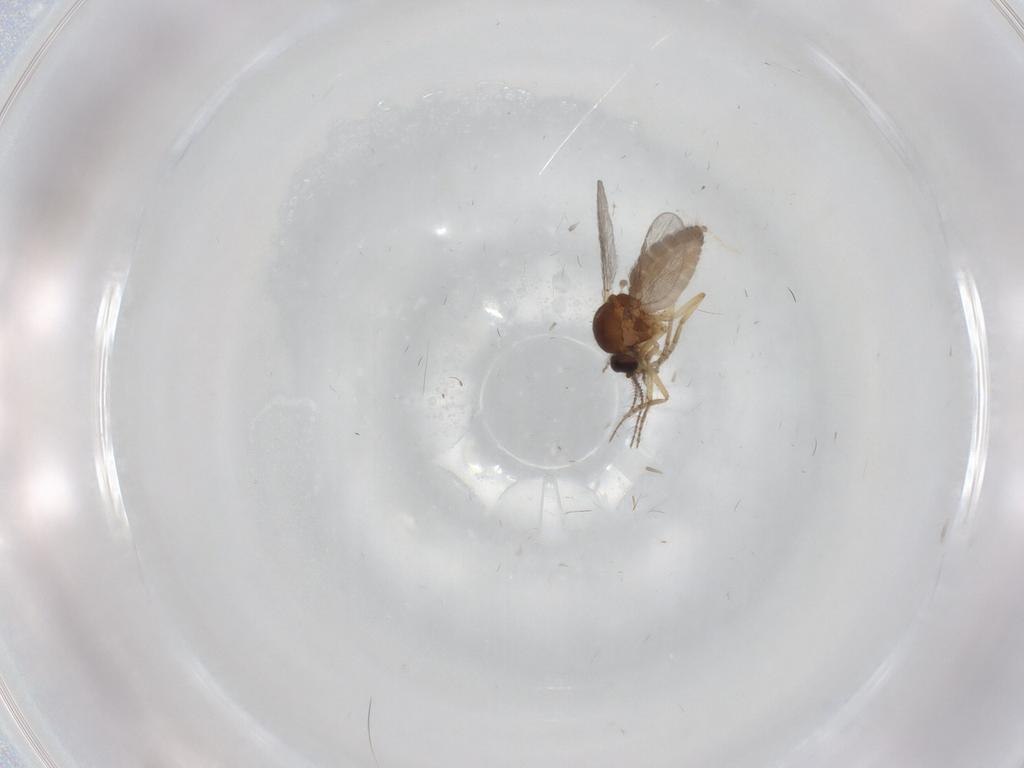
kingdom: Animalia
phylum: Arthropoda
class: Insecta
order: Diptera
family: Ceratopogonidae
